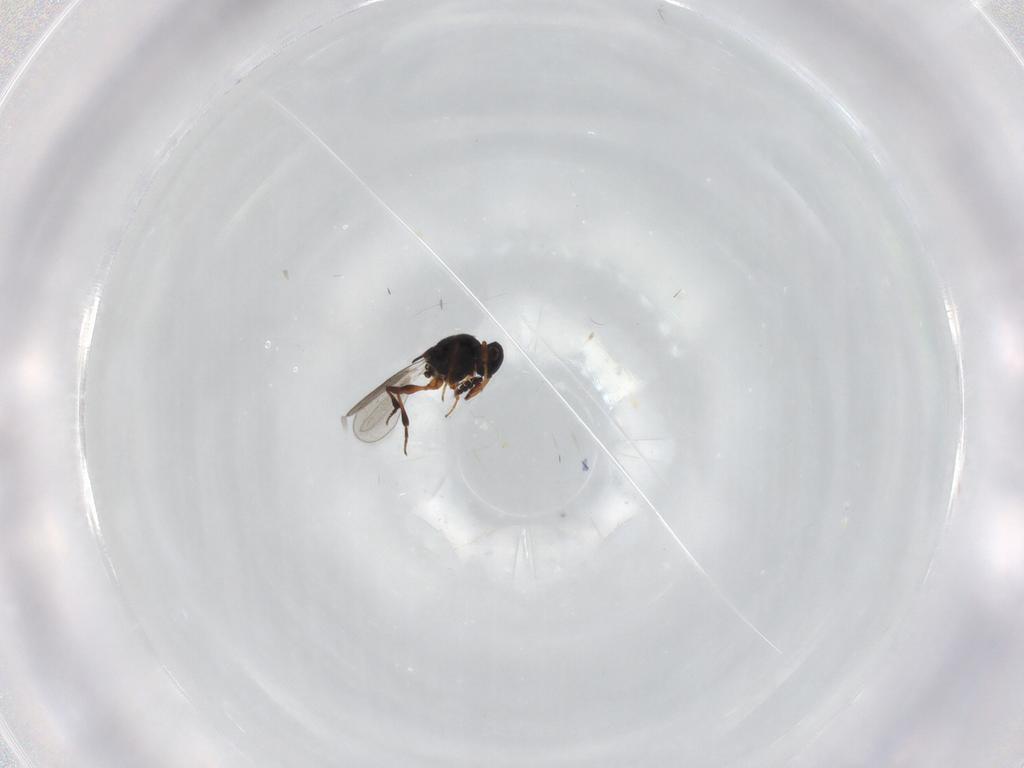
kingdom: Animalia
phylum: Arthropoda
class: Insecta
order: Hymenoptera
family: Platygastridae
